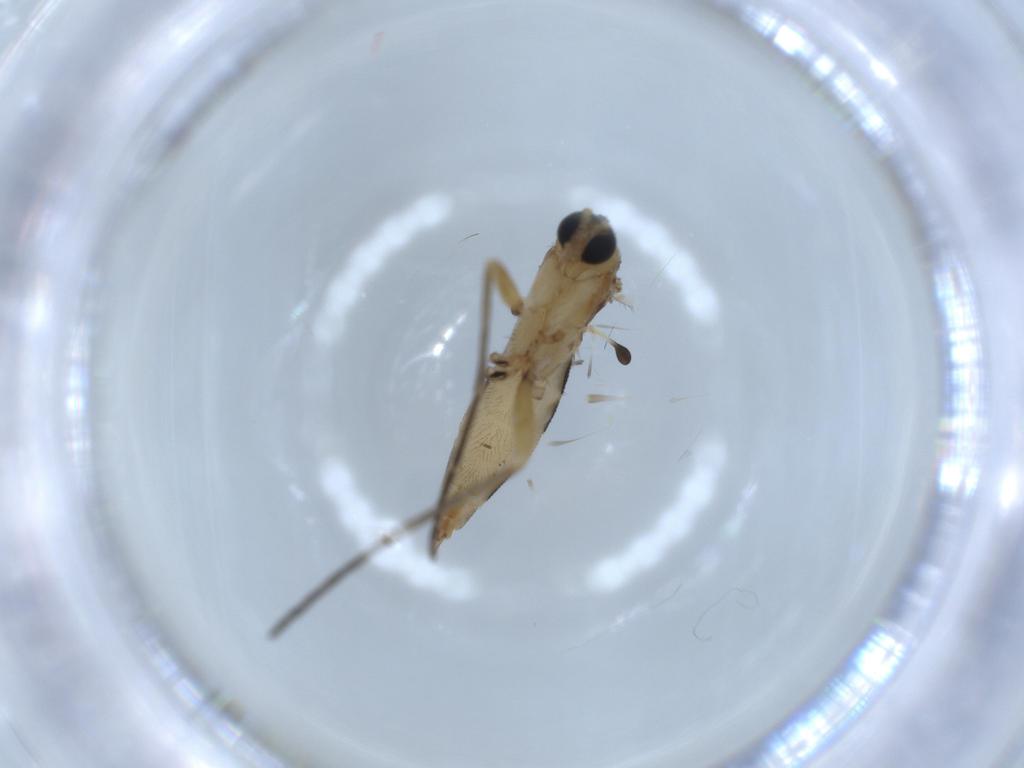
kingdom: Animalia
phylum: Arthropoda
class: Insecta
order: Diptera
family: Sciaridae
